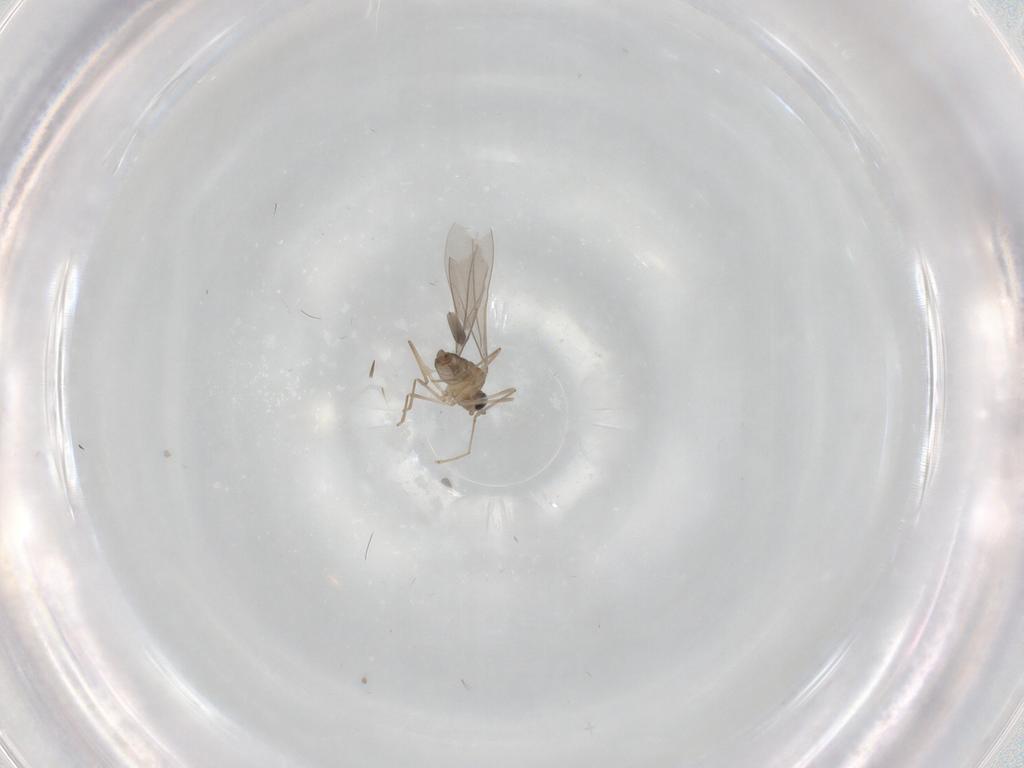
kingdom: Animalia
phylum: Arthropoda
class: Insecta
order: Diptera
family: Cecidomyiidae
